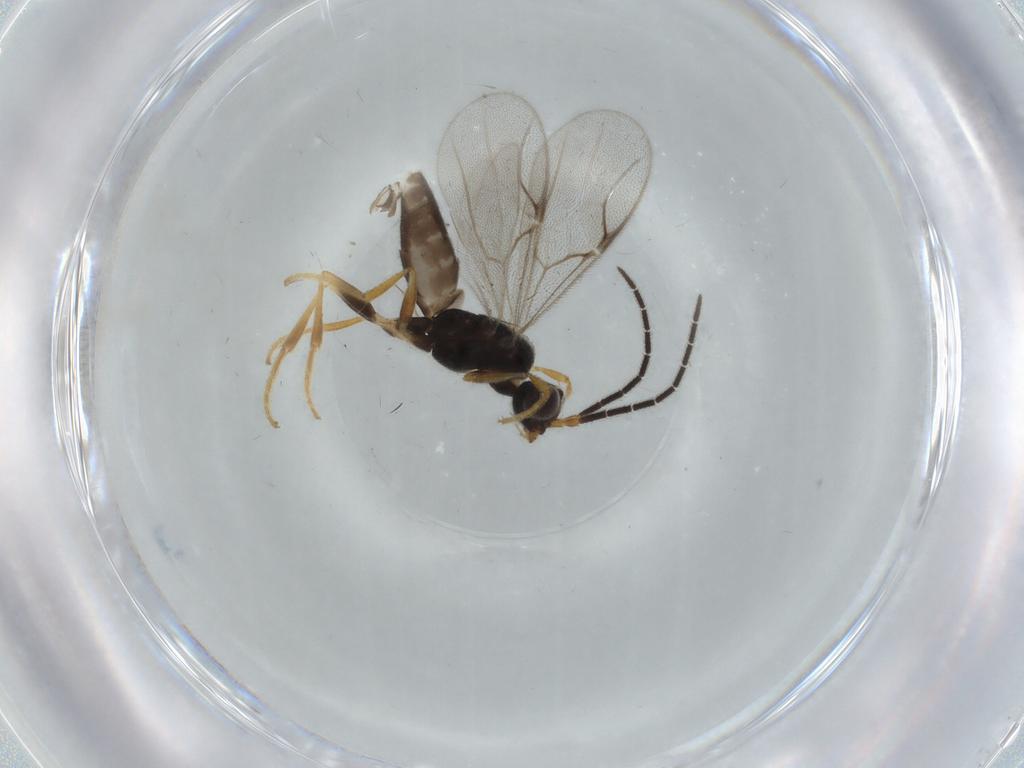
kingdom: Animalia
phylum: Arthropoda
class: Insecta
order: Hymenoptera
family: Dryinidae
